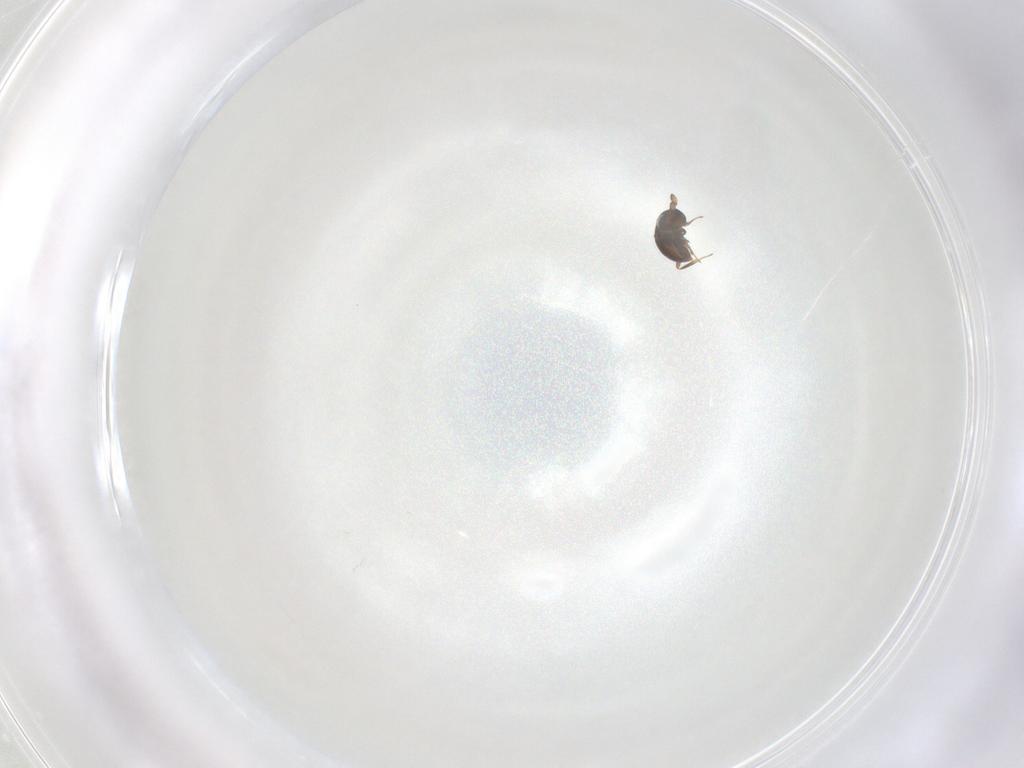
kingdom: Animalia
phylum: Arthropoda
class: Insecta
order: Hymenoptera
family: Scelionidae
